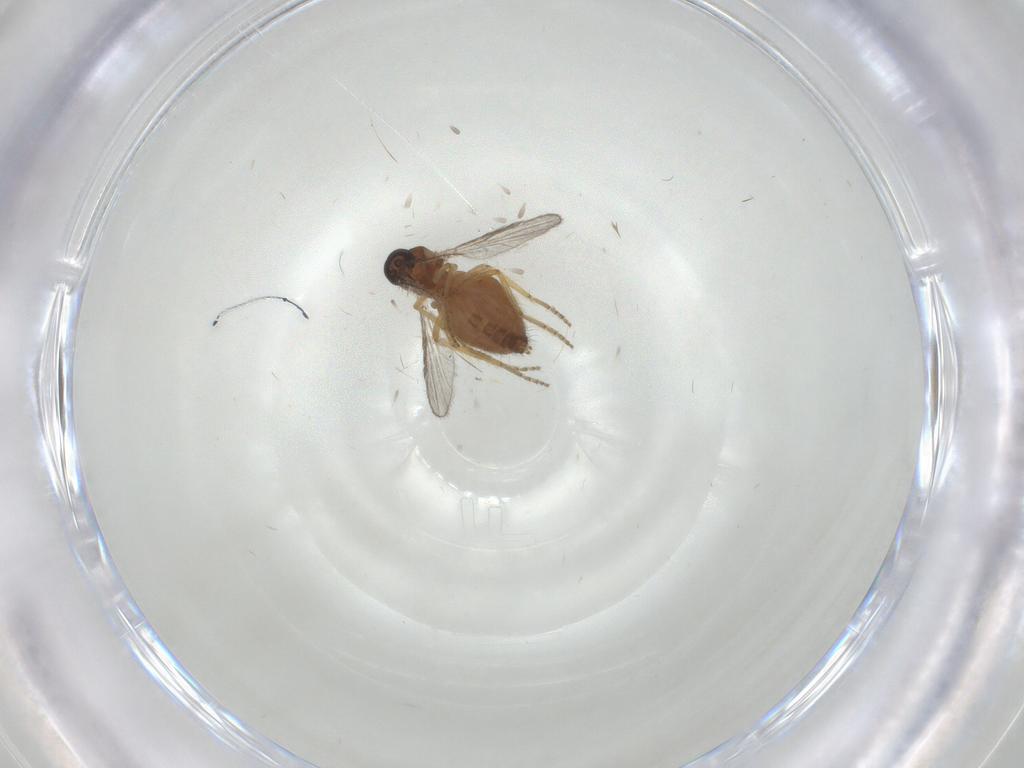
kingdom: Animalia
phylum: Arthropoda
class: Insecta
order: Diptera
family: Ceratopogonidae
